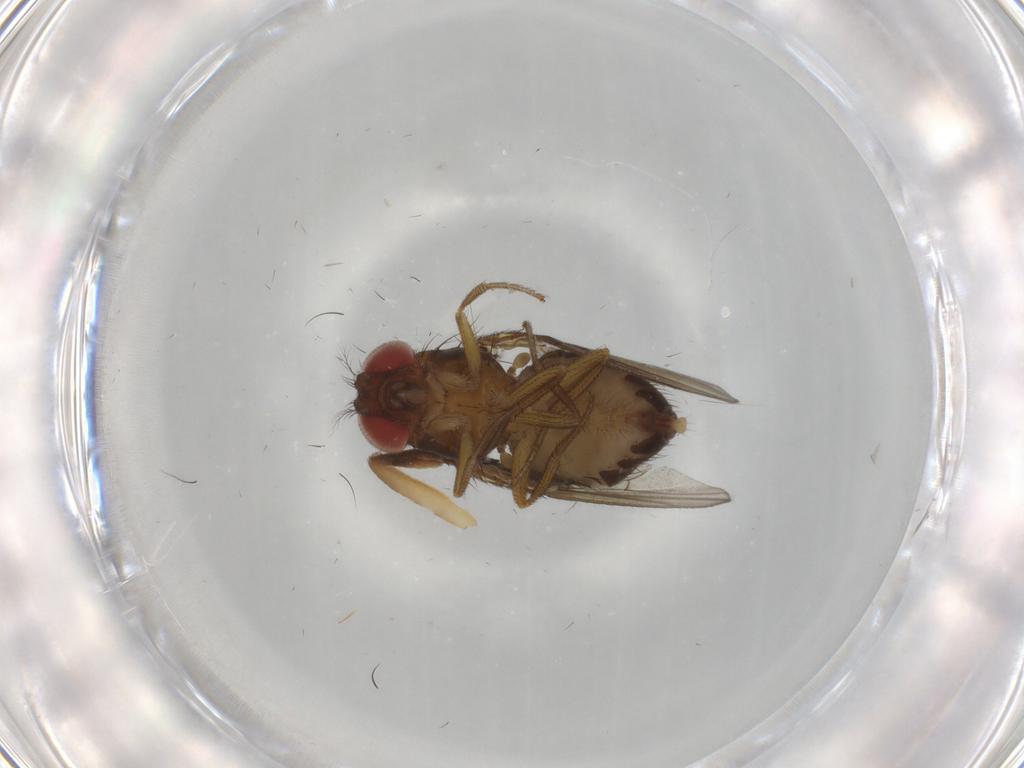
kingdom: Animalia
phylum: Arthropoda
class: Insecta
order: Diptera
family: Drosophilidae
